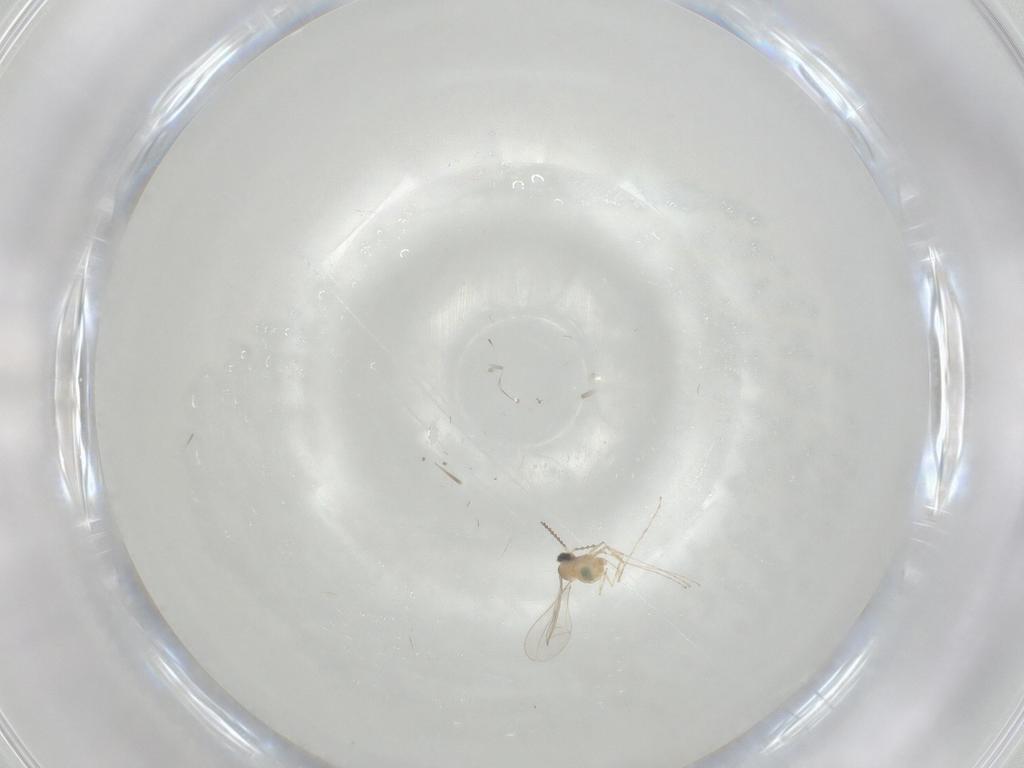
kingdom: Animalia
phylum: Arthropoda
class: Insecta
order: Diptera
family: Cecidomyiidae
